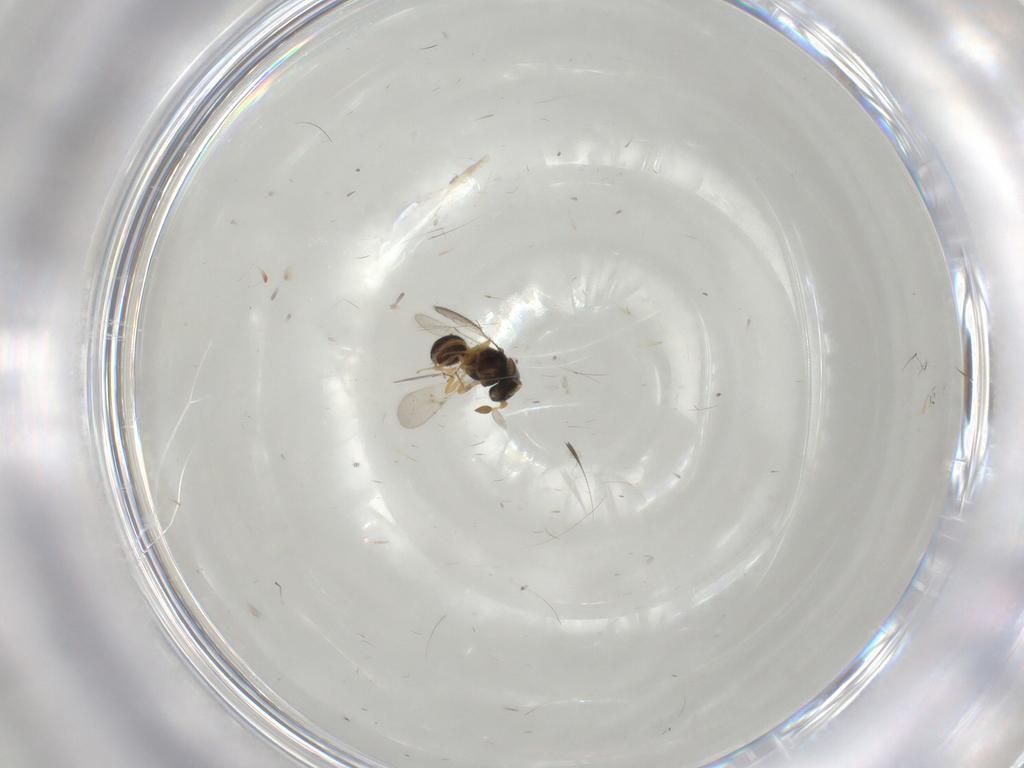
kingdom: Animalia
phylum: Arthropoda
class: Insecta
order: Hymenoptera
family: Scelionidae
